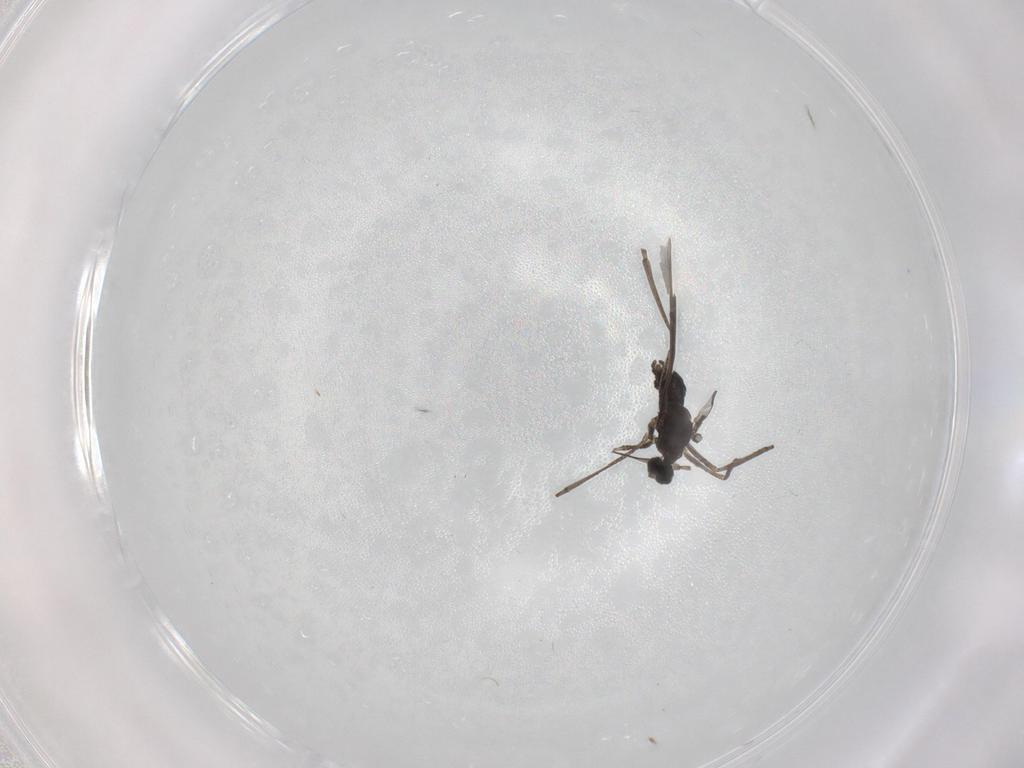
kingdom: Animalia
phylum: Arthropoda
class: Insecta
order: Diptera
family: Cecidomyiidae
